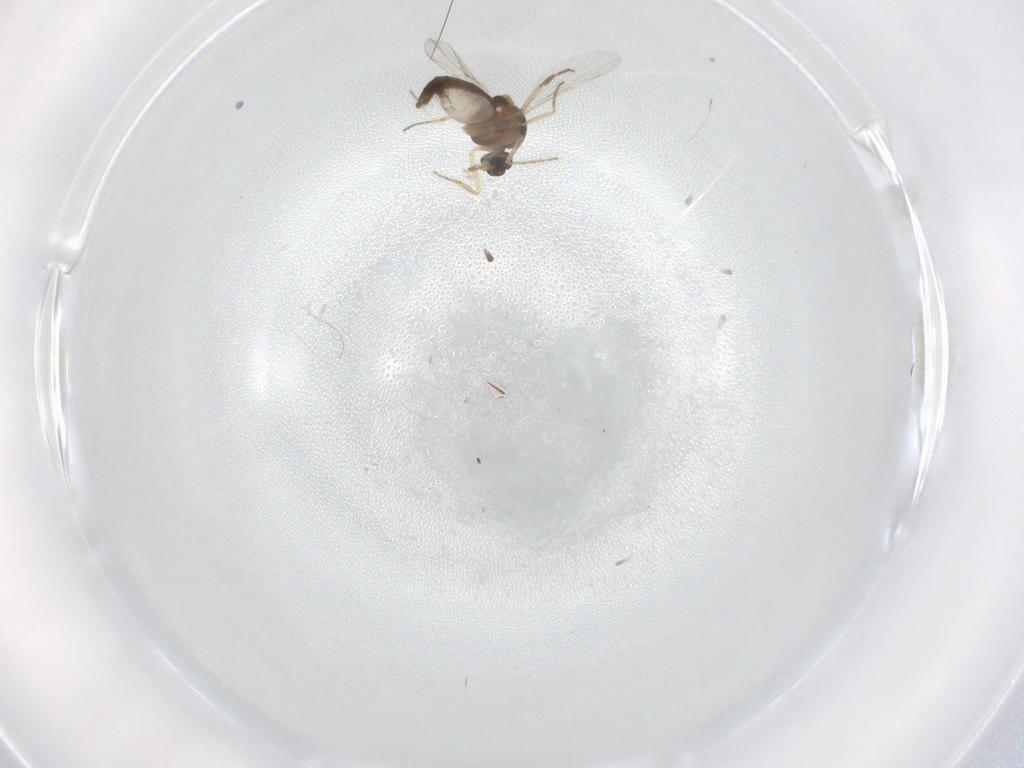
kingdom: Animalia
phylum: Arthropoda
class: Insecta
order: Diptera
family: Ceratopogonidae
